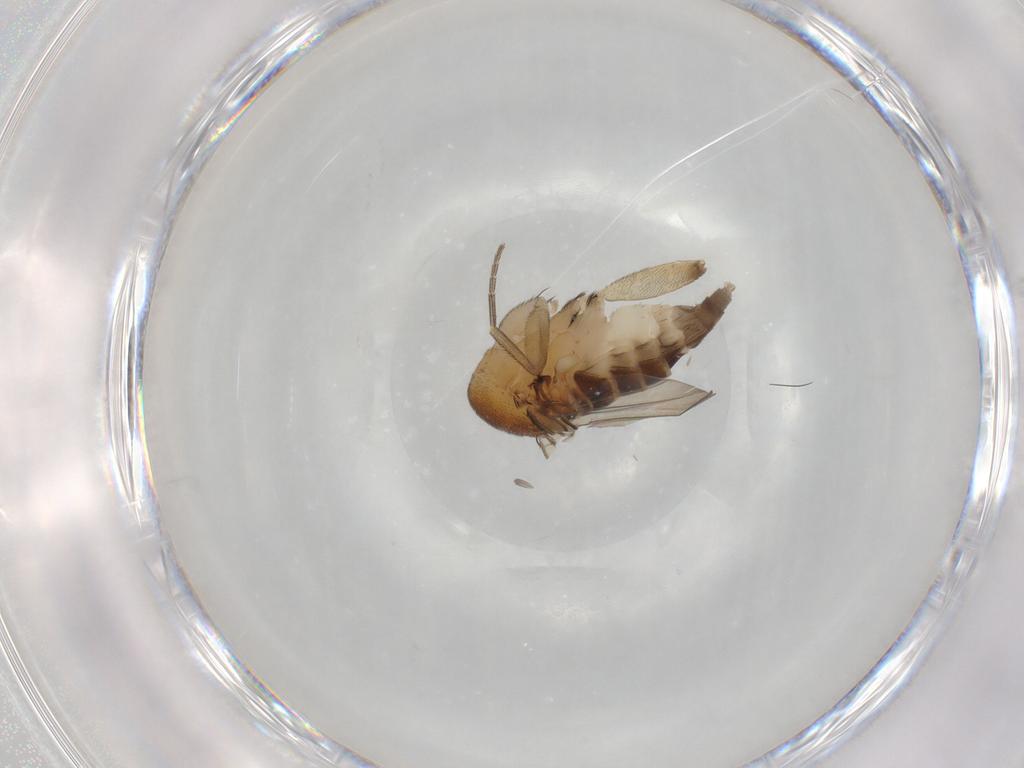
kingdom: Animalia
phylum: Arthropoda
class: Insecta
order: Diptera
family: Phoridae
